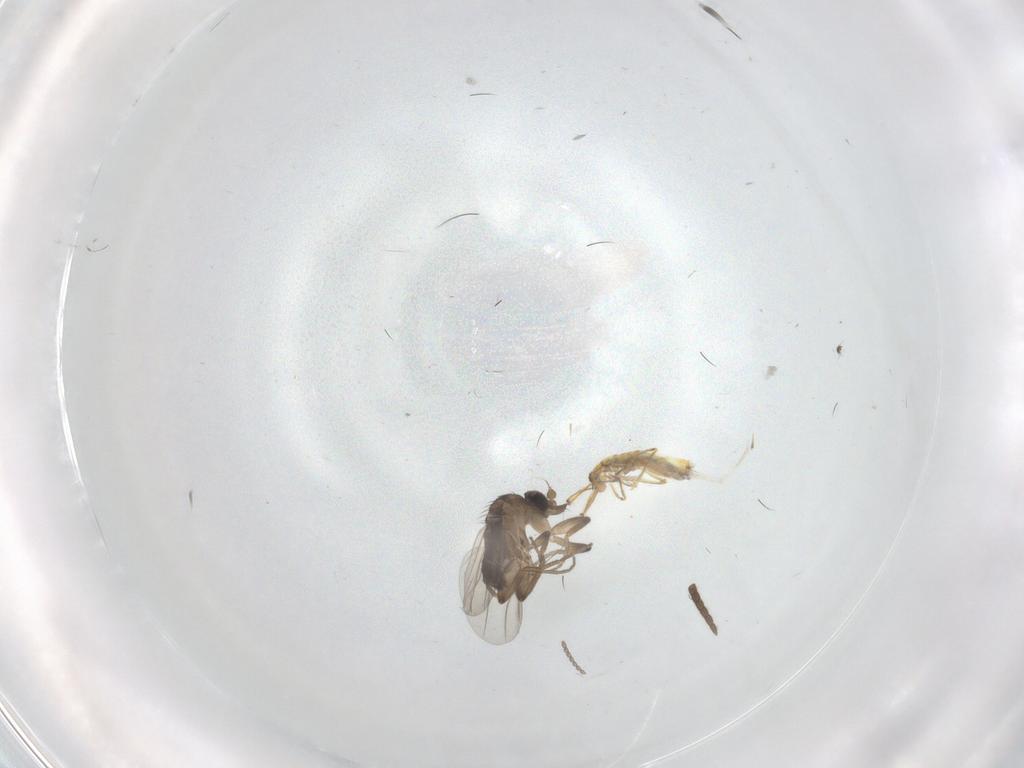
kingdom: Animalia
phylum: Arthropoda
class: Insecta
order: Diptera
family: Mycetophilidae
